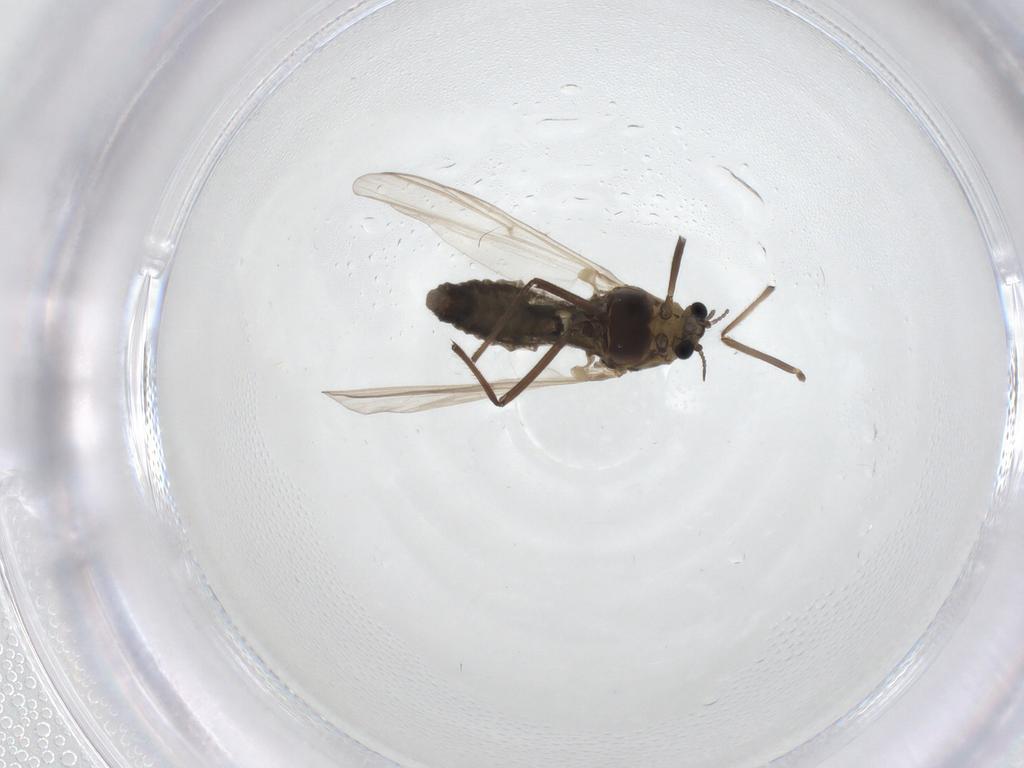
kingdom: Animalia
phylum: Arthropoda
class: Insecta
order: Diptera
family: Chironomidae
